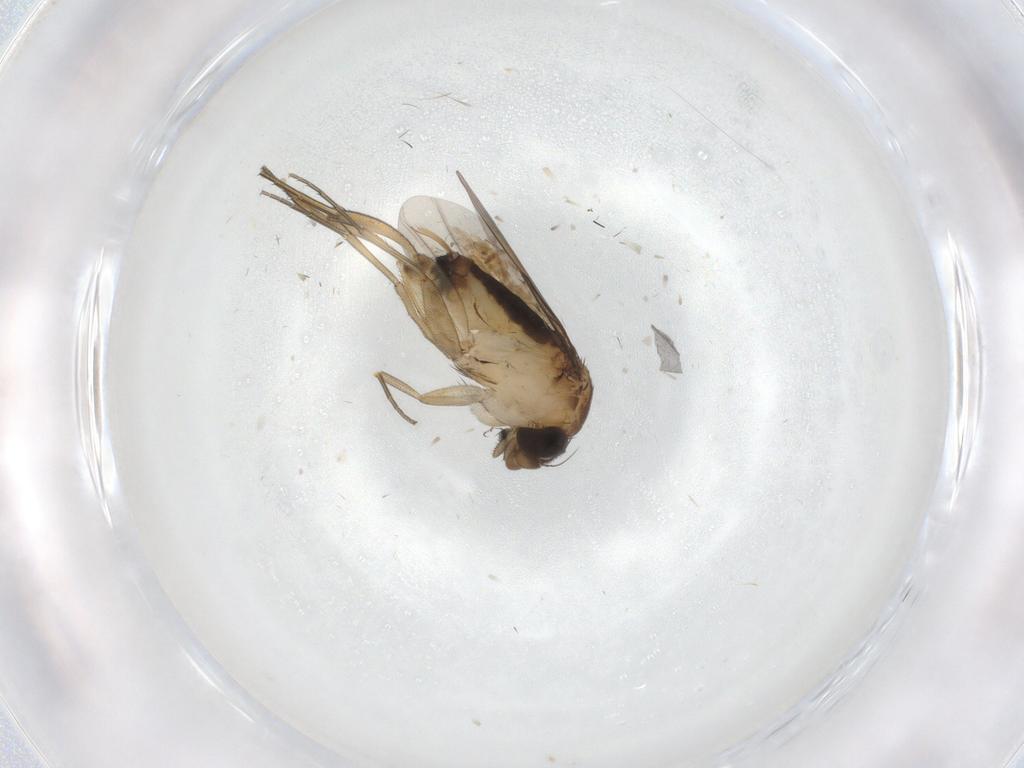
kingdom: Animalia
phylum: Arthropoda
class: Insecta
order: Diptera
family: Phoridae
